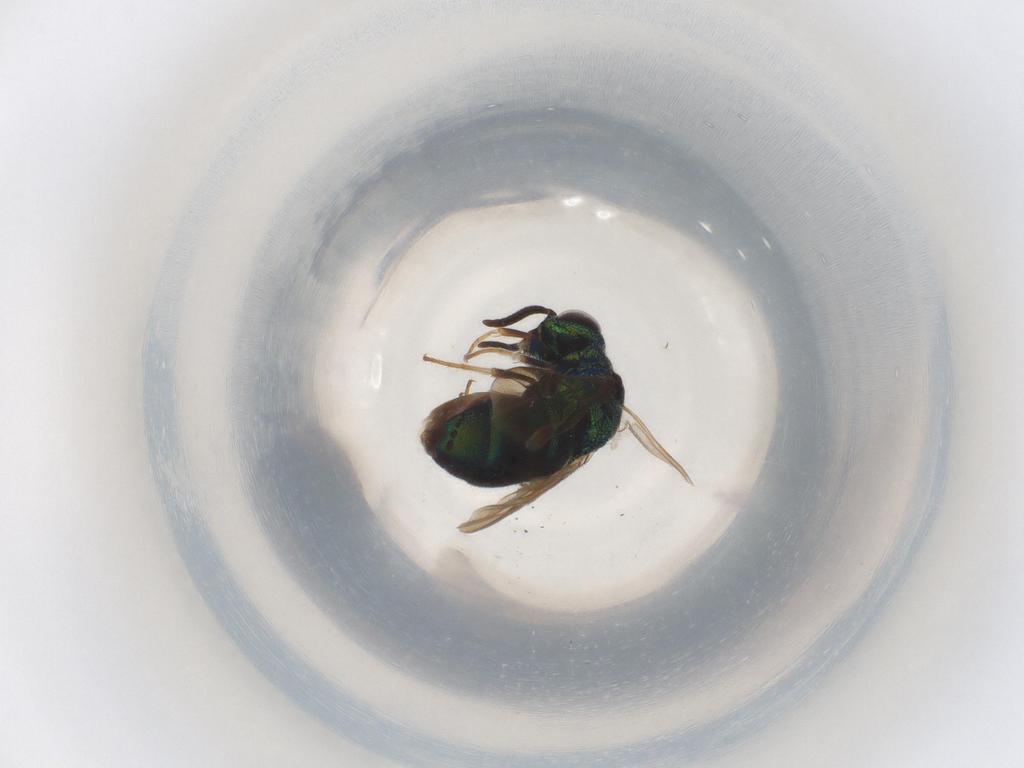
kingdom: Animalia
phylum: Arthropoda
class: Insecta
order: Hymenoptera
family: Chrysididae
